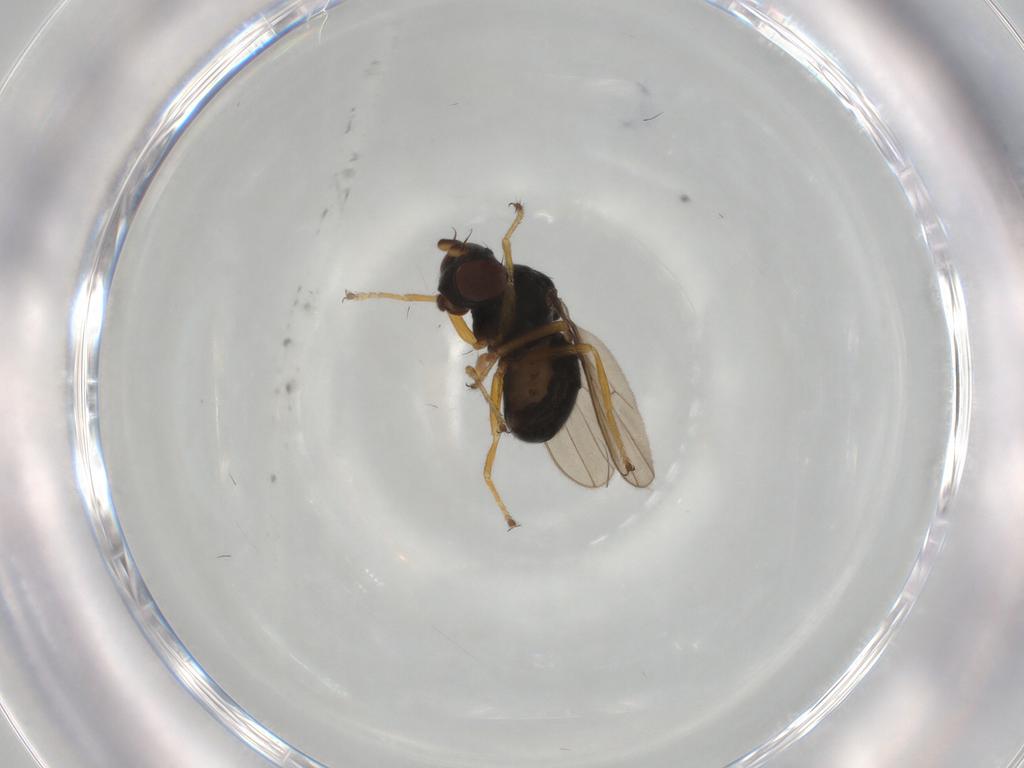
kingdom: Animalia
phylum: Arthropoda
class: Insecta
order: Diptera
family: Ephydridae
